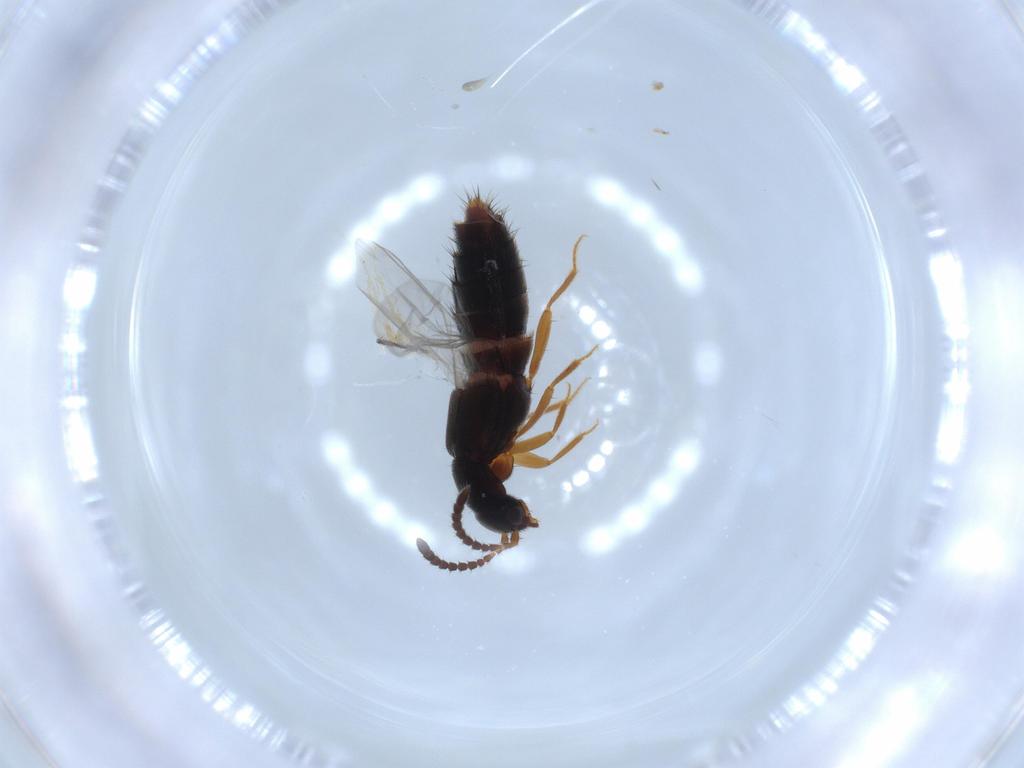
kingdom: Animalia
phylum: Arthropoda
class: Insecta
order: Coleoptera
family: Staphylinidae
